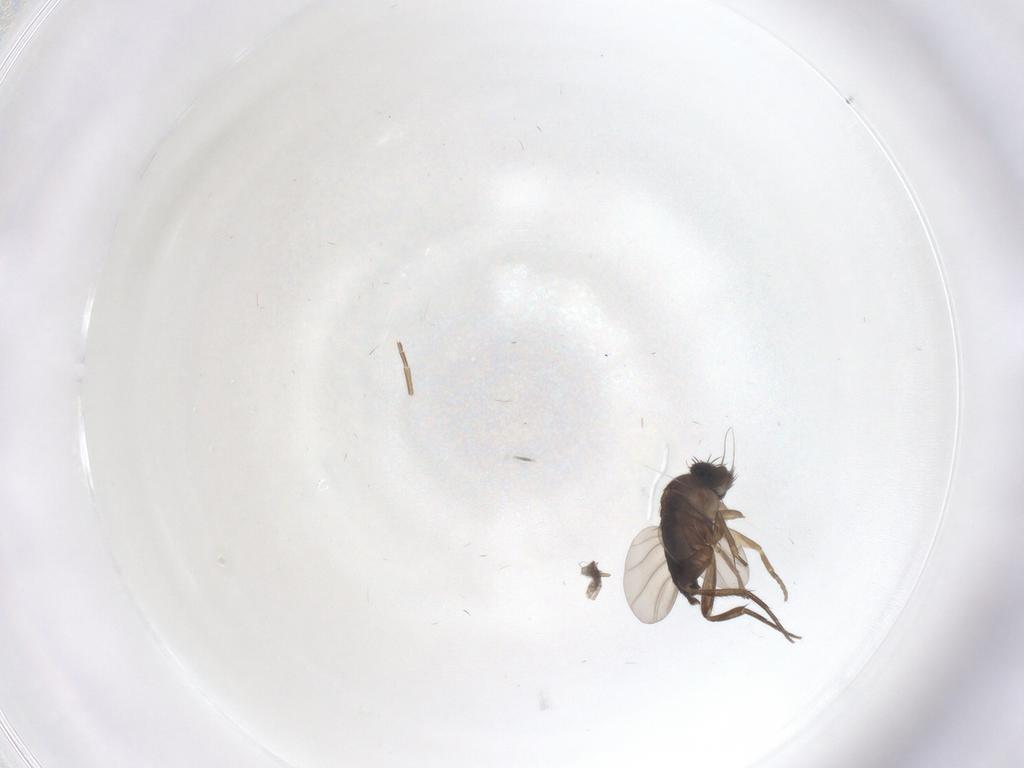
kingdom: Animalia
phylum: Arthropoda
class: Insecta
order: Diptera
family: Phoridae
